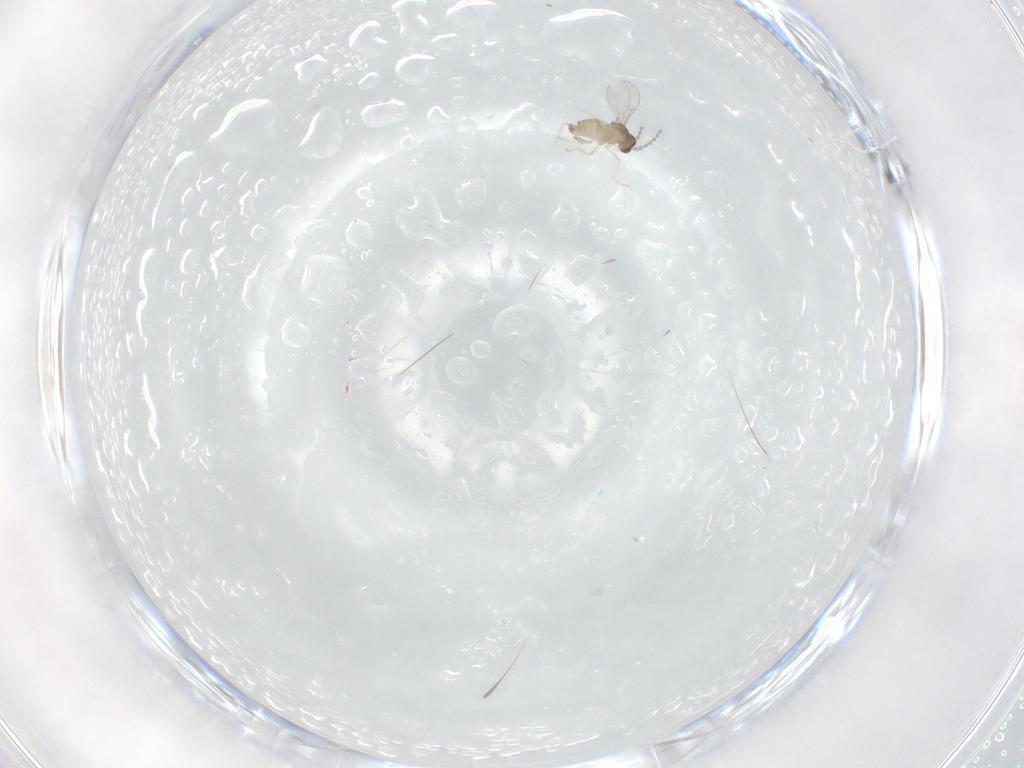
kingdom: Animalia
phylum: Arthropoda
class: Insecta
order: Diptera
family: Cecidomyiidae
